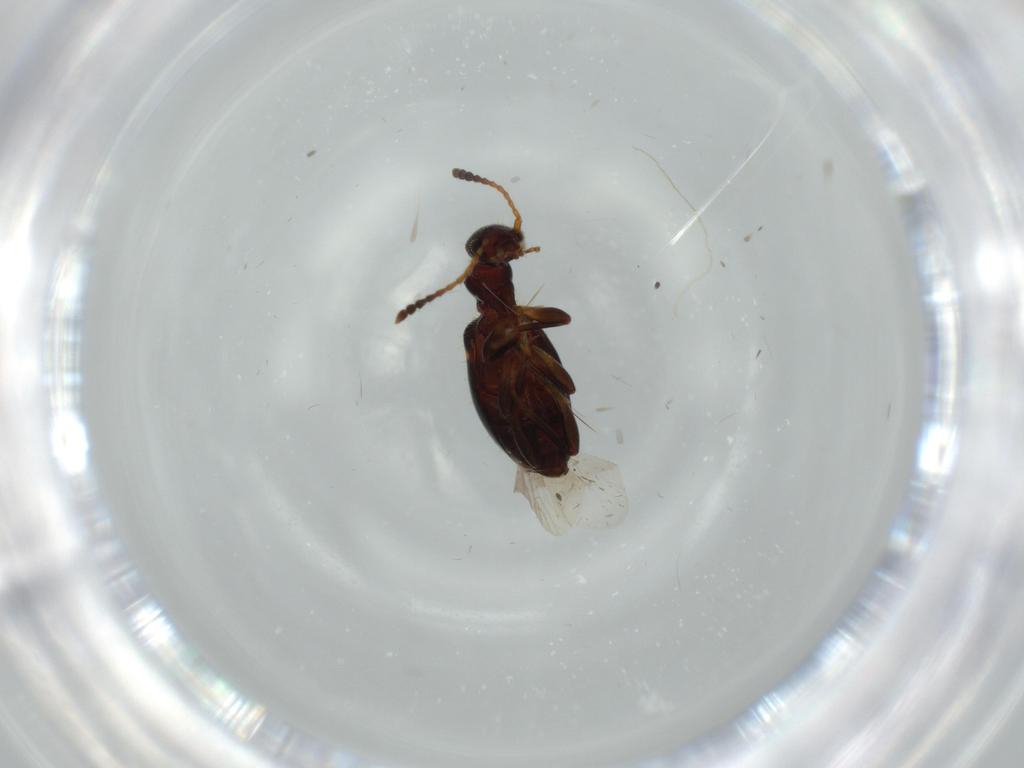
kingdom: Animalia
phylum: Arthropoda
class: Insecta
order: Coleoptera
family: Anthicidae
